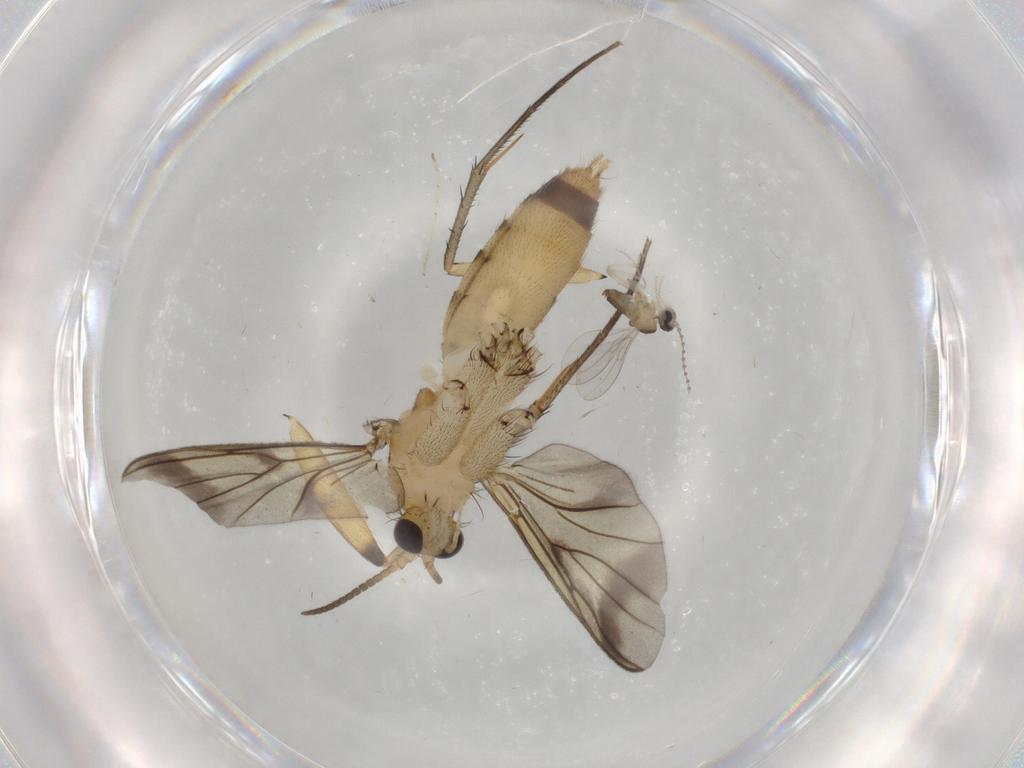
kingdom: Animalia
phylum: Arthropoda
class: Insecta
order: Diptera
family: Mycetophilidae
